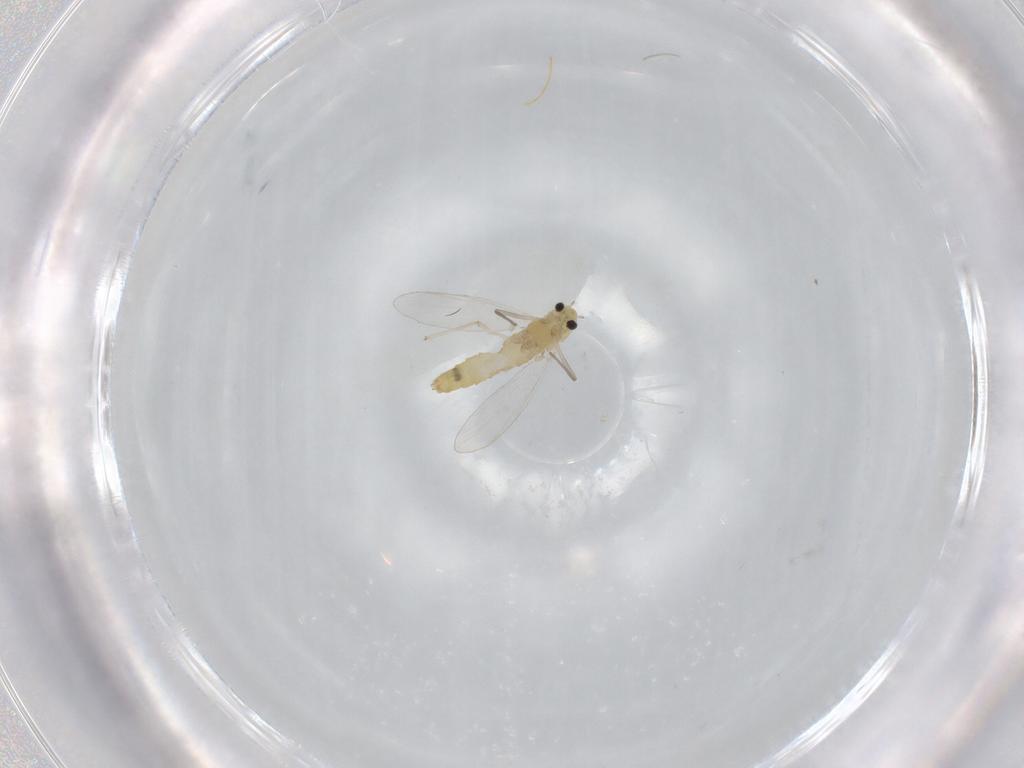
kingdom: Animalia
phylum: Arthropoda
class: Insecta
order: Diptera
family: Chironomidae
